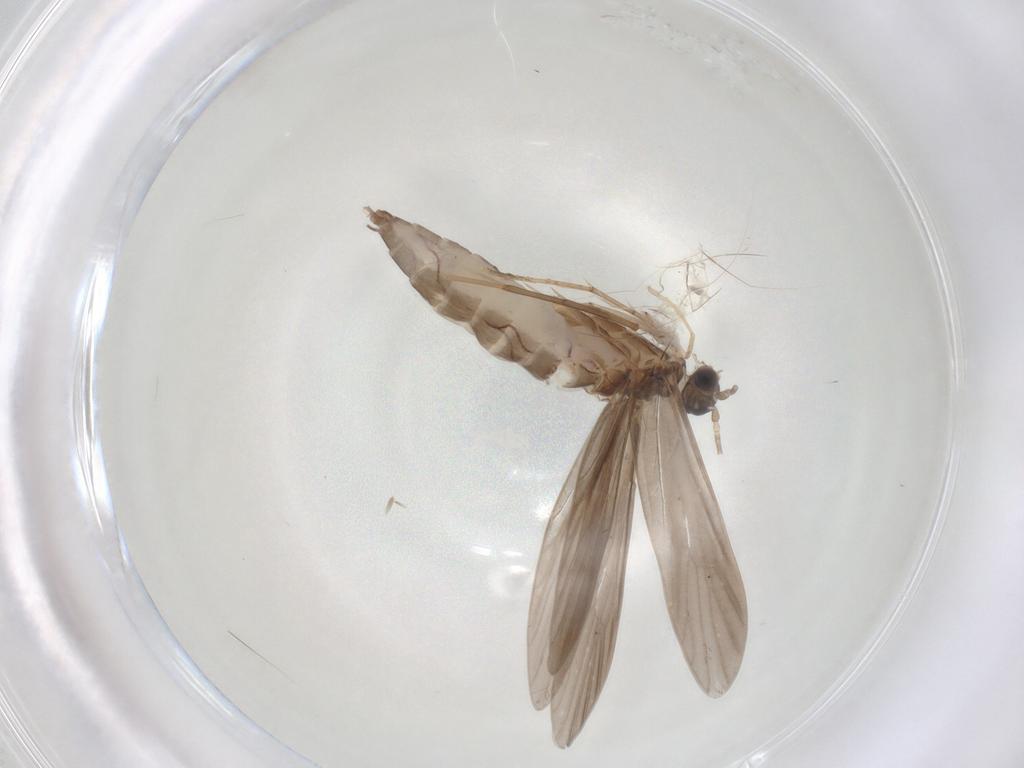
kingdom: Animalia
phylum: Arthropoda
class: Insecta
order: Trichoptera
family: Xiphocentronidae
